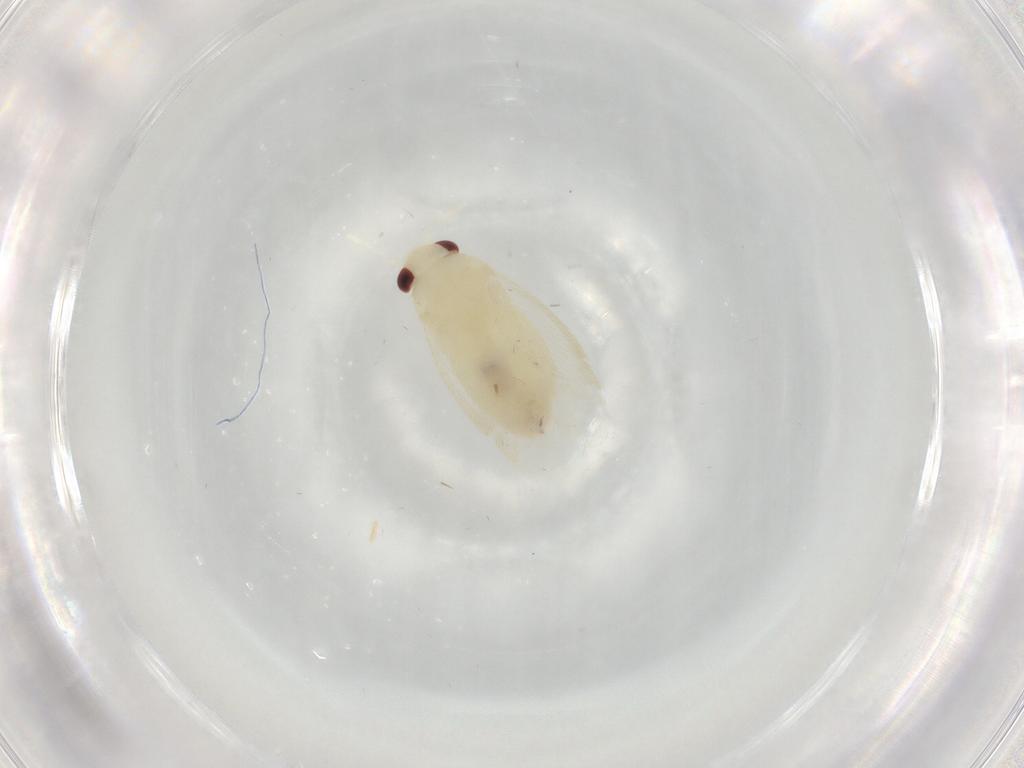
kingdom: Animalia
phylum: Arthropoda
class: Insecta
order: Hemiptera
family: Miridae
